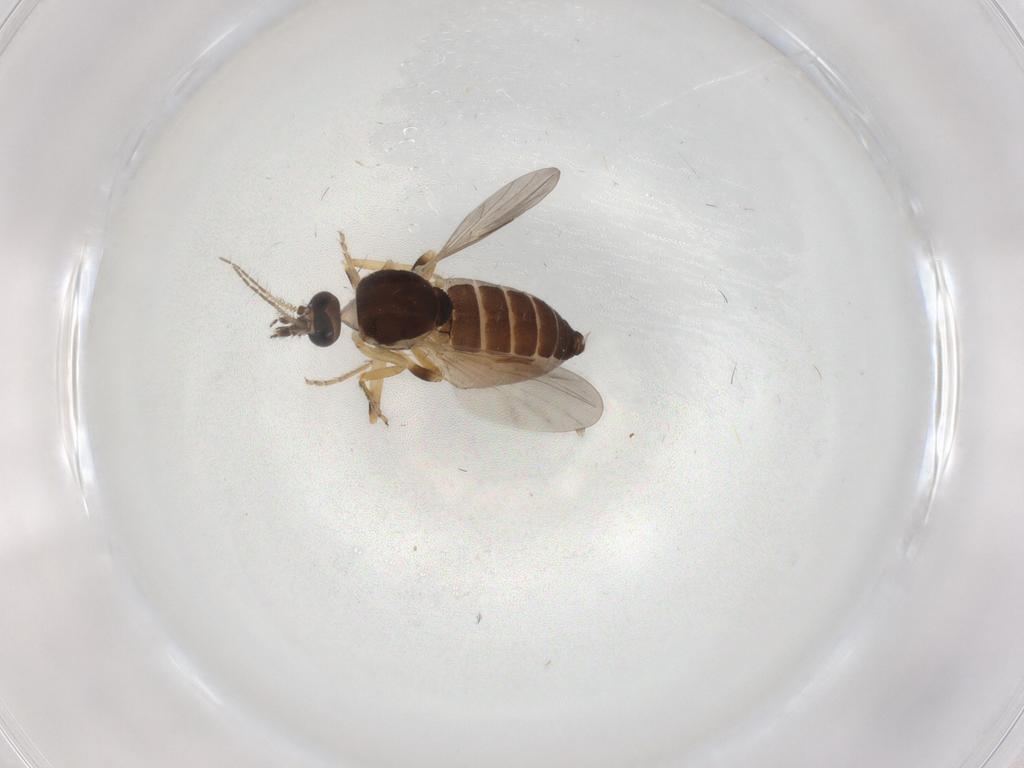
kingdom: Animalia
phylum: Arthropoda
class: Insecta
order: Diptera
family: Ceratopogonidae
